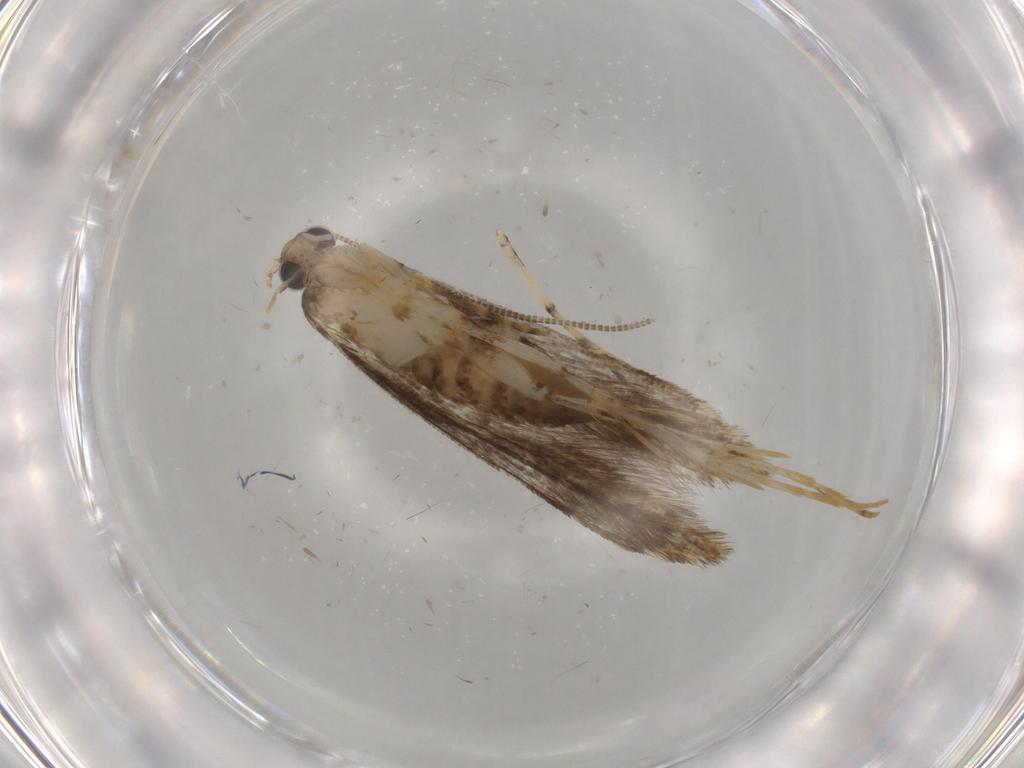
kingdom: Animalia
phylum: Arthropoda
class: Insecta
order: Lepidoptera
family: Tineidae
